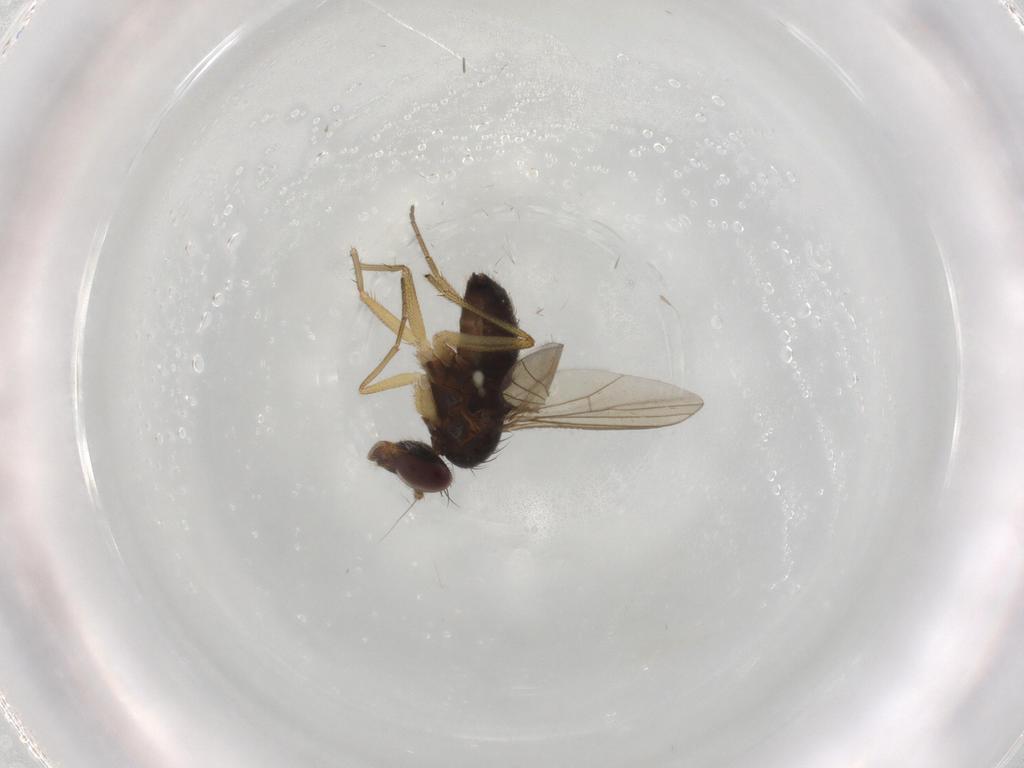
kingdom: Animalia
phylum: Arthropoda
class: Insecta
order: Diptera
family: Dolichopodidae
